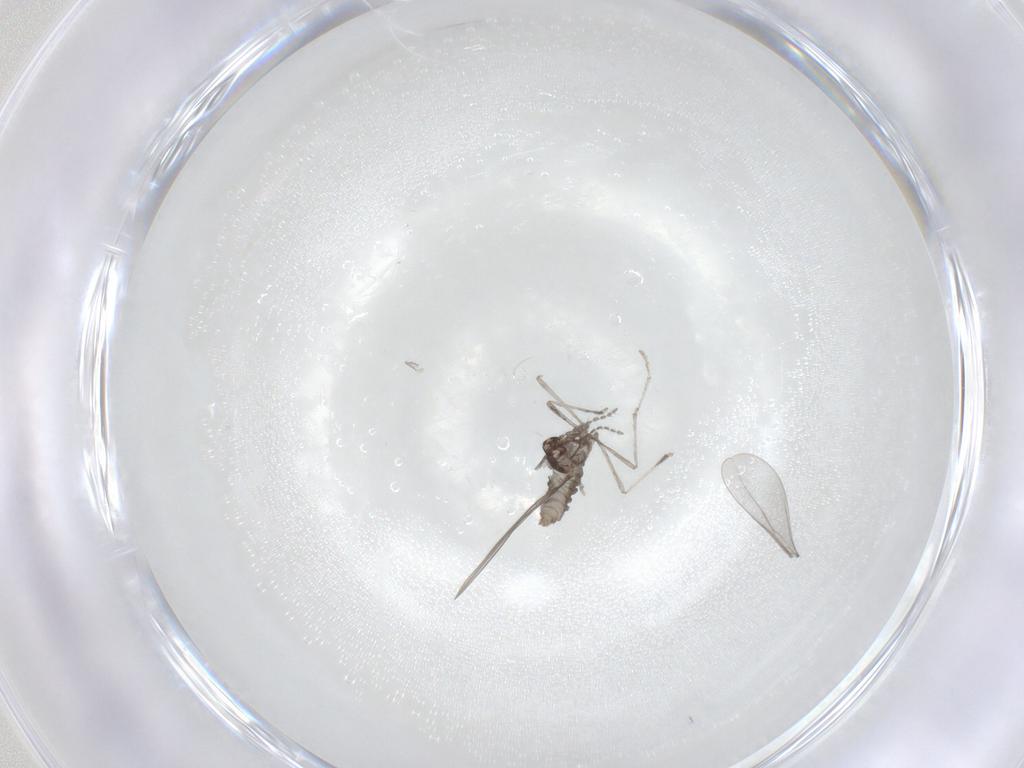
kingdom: Animalia
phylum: Arthropoda
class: Insecta
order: Diptera
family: Sciaridae
